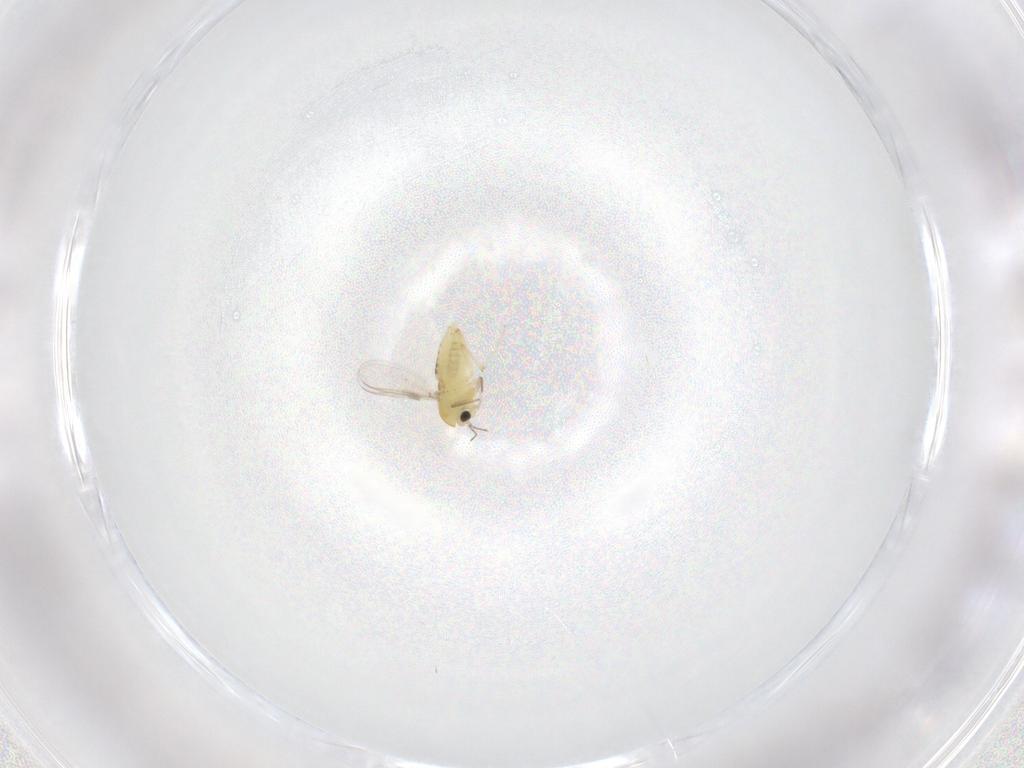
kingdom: Animalia
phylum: Arthropoda
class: Insecta
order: Diptera
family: Chironomidae
